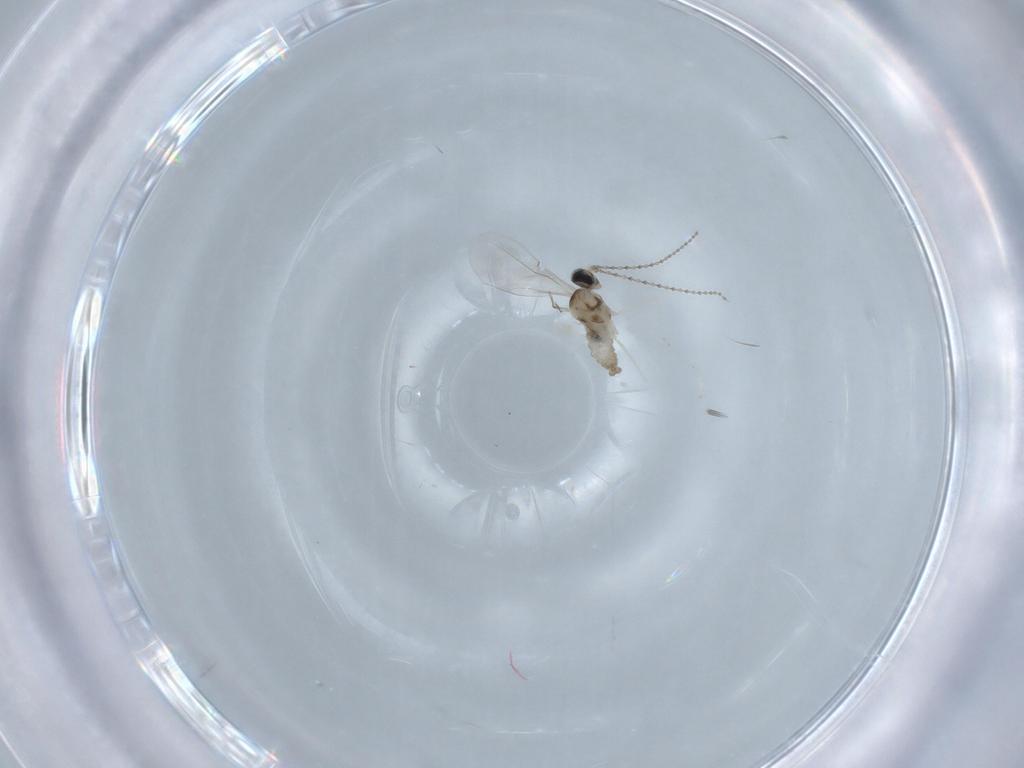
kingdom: Animalia
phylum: Arthropoda
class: Insecta
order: Diptera
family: Cecidomyiidae
